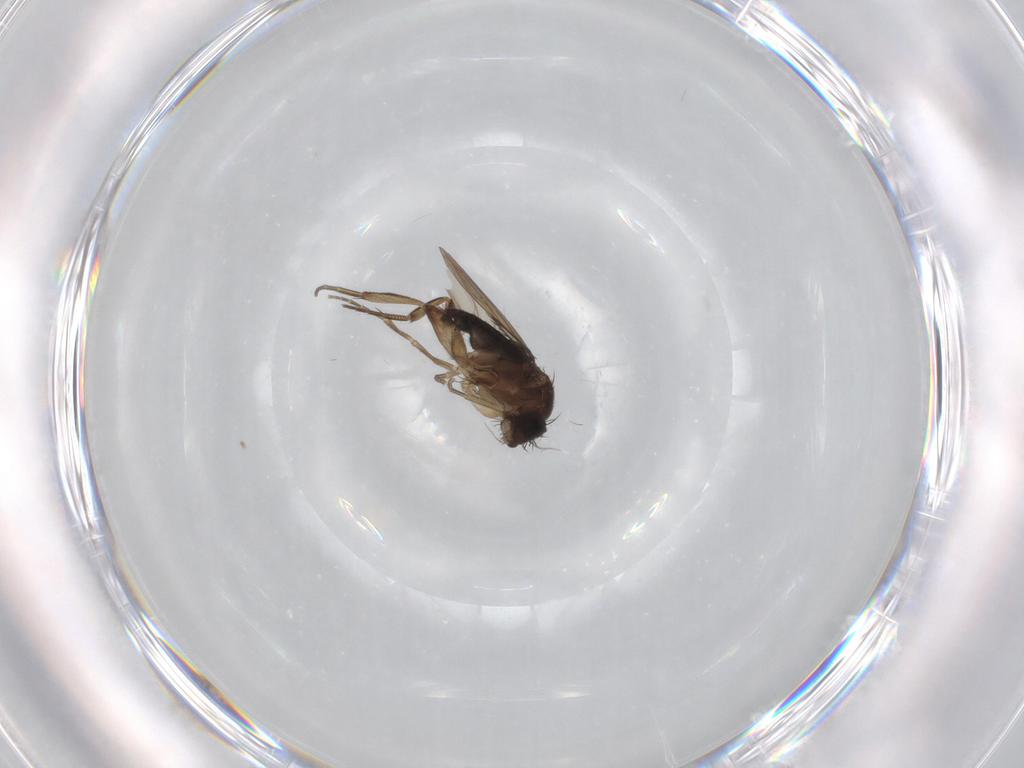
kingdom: Animalia
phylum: Arthropoda
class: Insecta
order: Diptera
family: Phoridae
